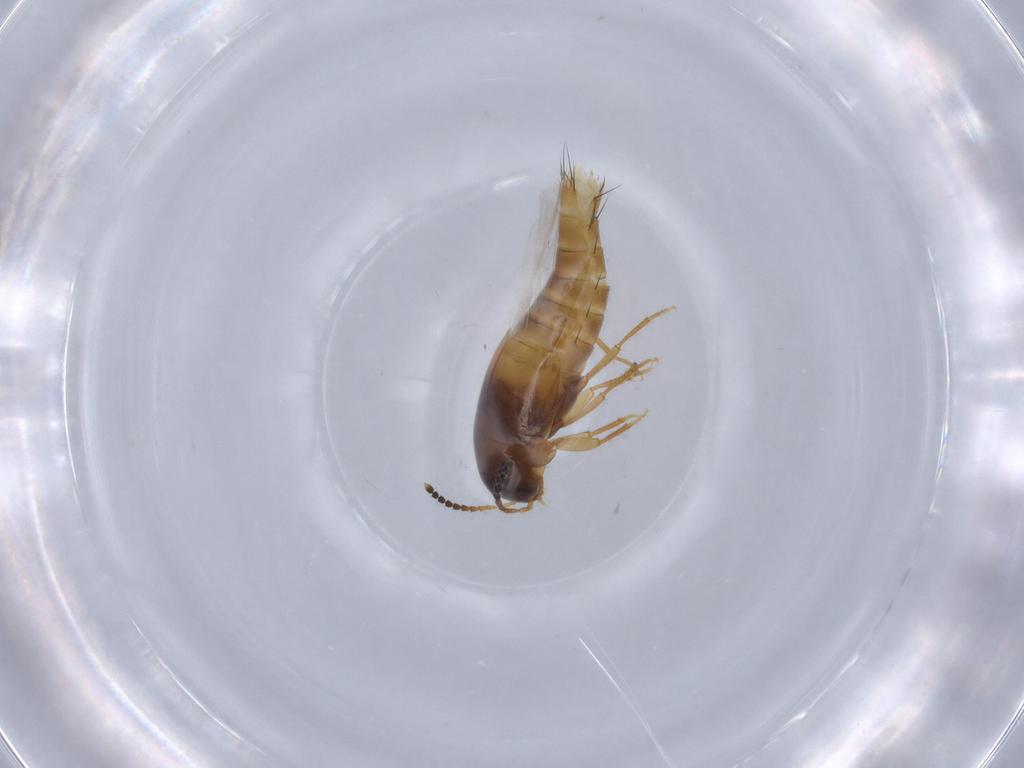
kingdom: Animalia
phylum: Arthropoda
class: Insecta
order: Coleoptera
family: Staphylinidae
